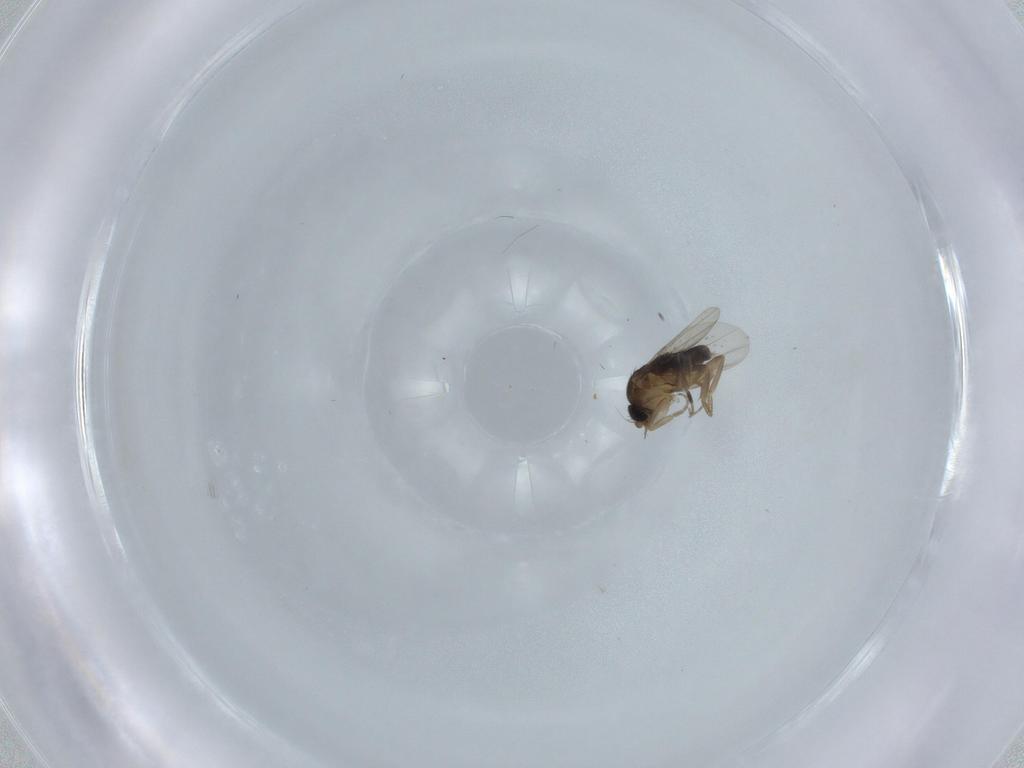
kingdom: Animalia
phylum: Arthropoda
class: Insecta
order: Diptera
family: Phoridae
